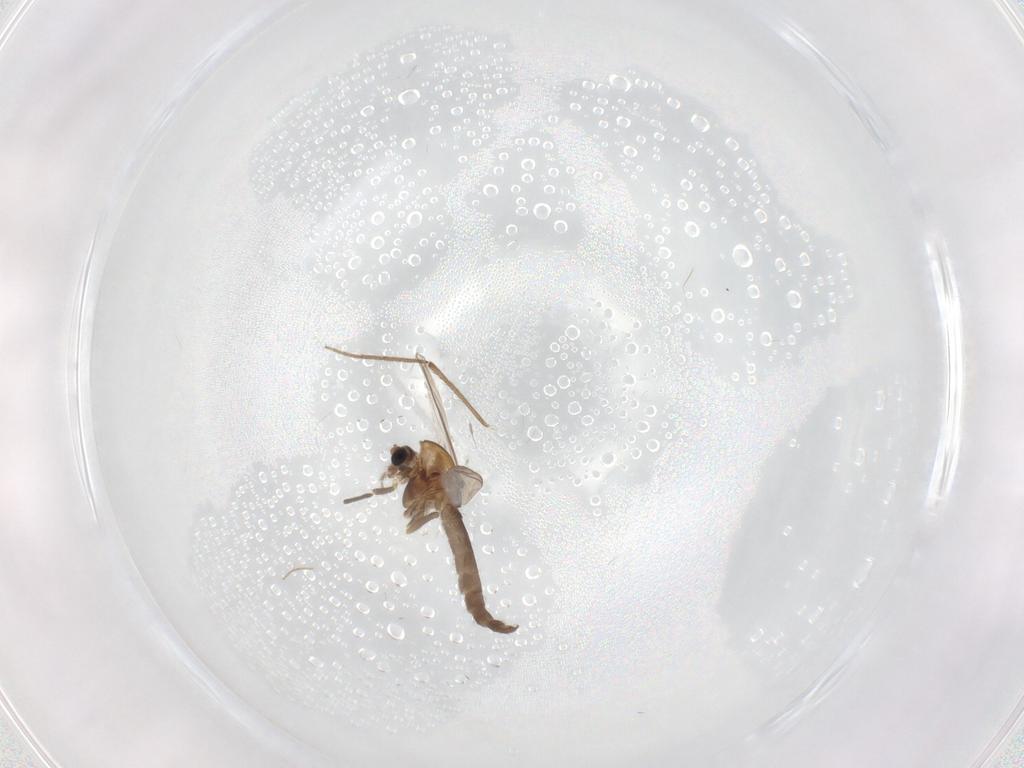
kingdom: Animalia
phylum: Arthropoda
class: Insecta
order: Diptera
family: Chironomidae
